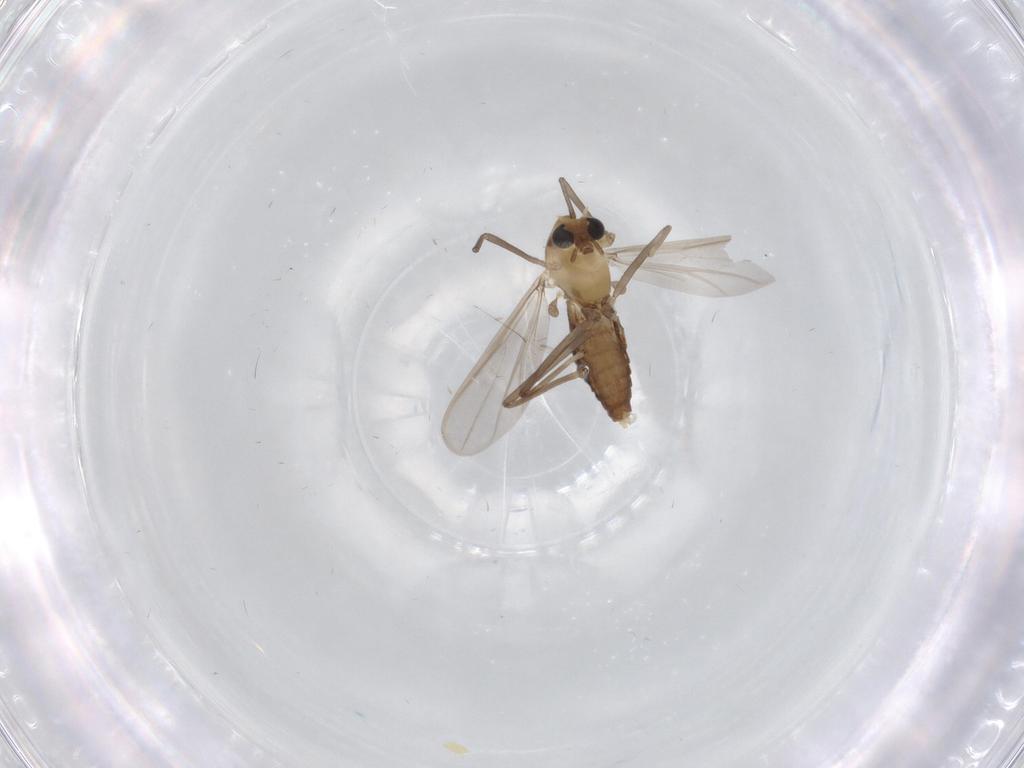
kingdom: Animalia
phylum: Arthropoda
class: Insecta
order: Diptera
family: Chironomidae
